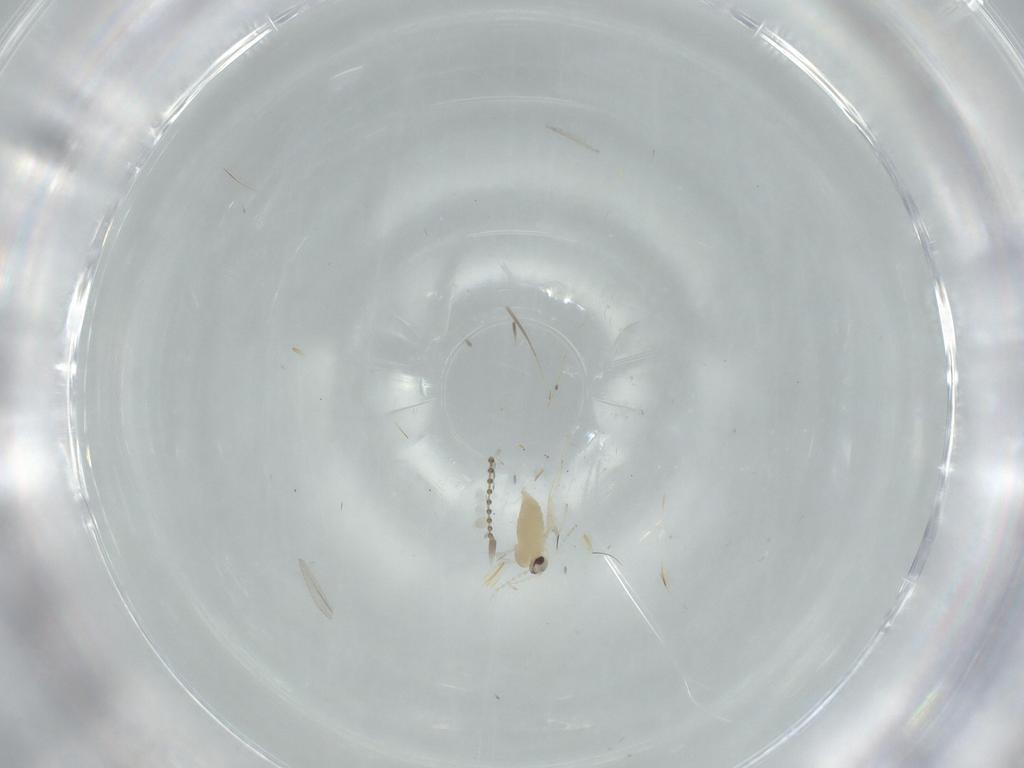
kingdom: Animalia
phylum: Arthropoda
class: Insecta
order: Diptera
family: Cecidomyiidae
